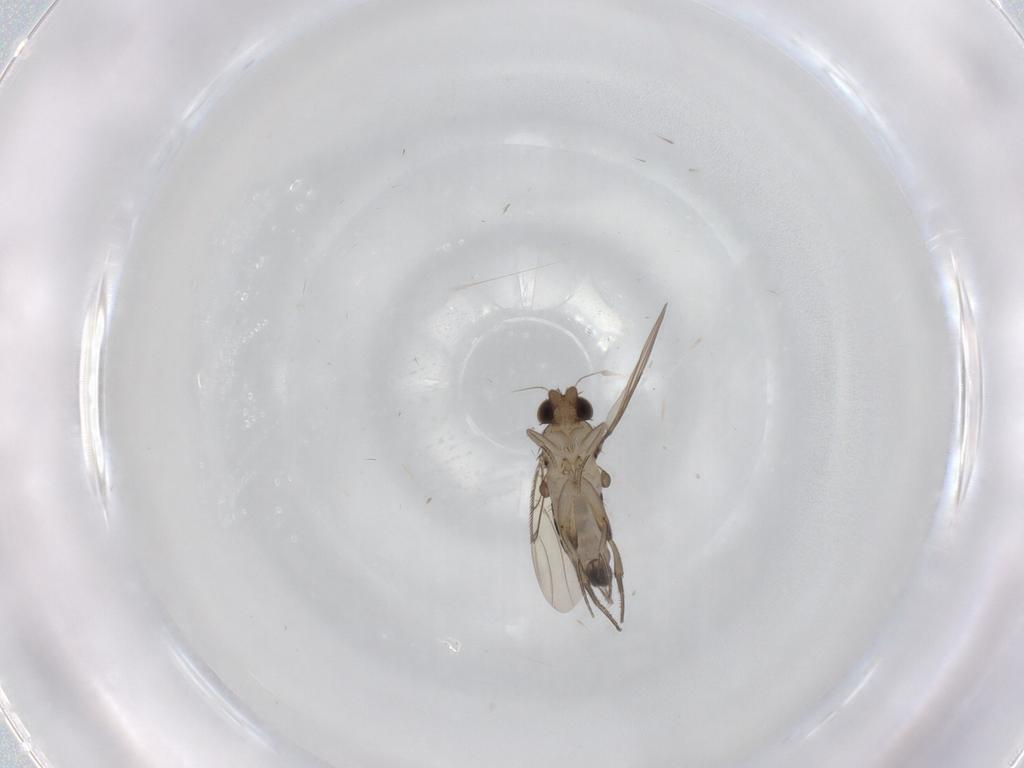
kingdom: Animalia
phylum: Arthropoda
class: Insecta
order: Diptera
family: Phoridae
